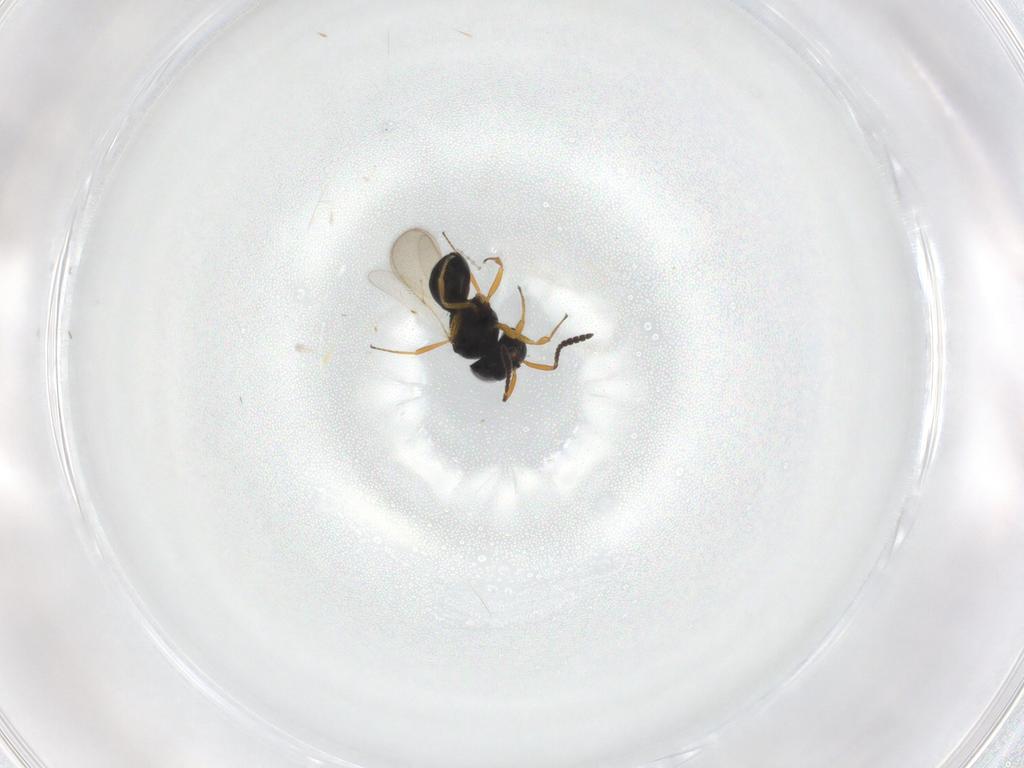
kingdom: Animalia
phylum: Arthropoda
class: Insecta
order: Hymenoptera
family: Scelionidae
